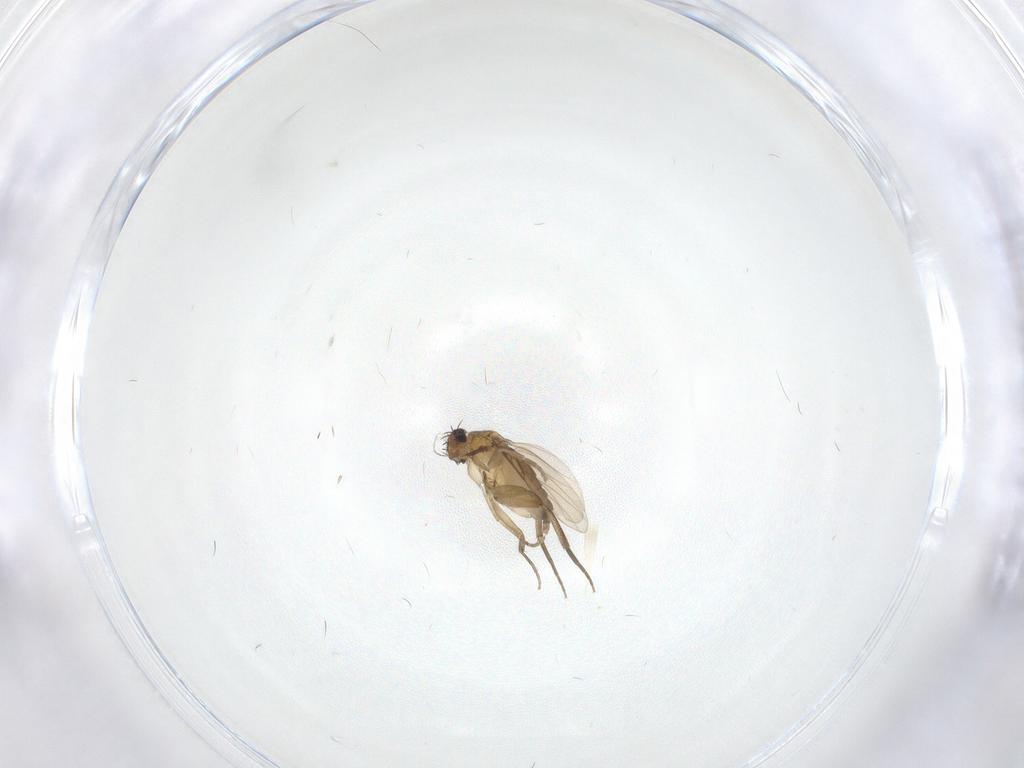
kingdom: Animalia
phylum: Arthropoda
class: Insecta
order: Diptera
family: Phoridae
